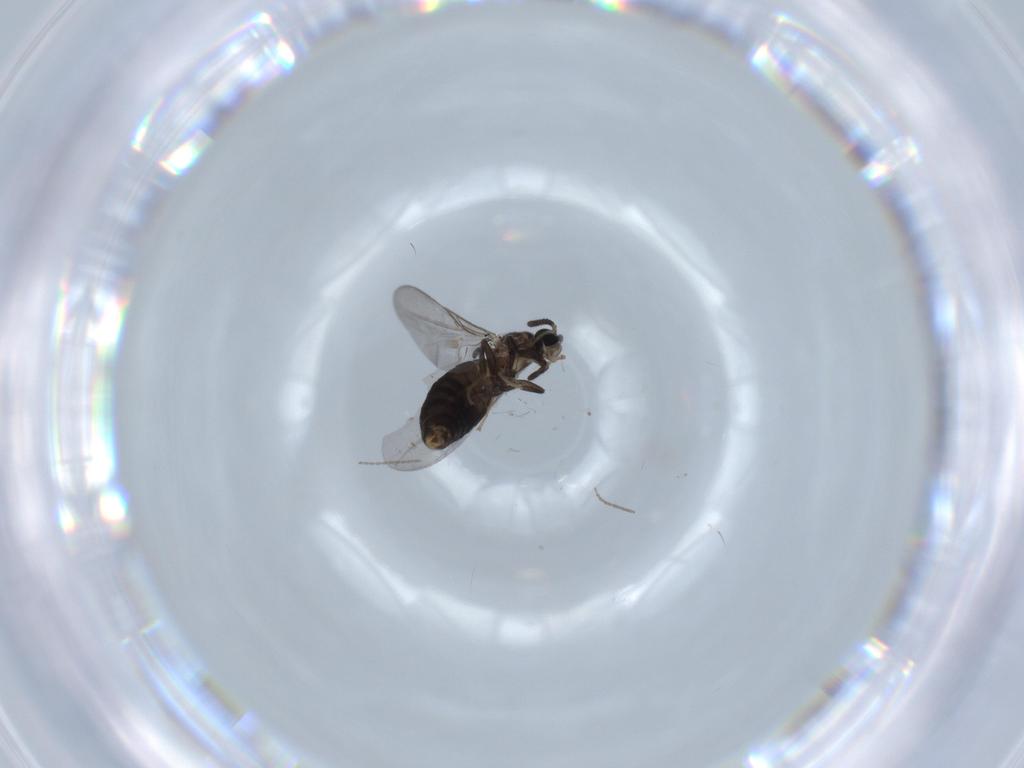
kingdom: Animalia
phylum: Arthropoda
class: Insecta
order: Diptera
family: Scatopsidae
